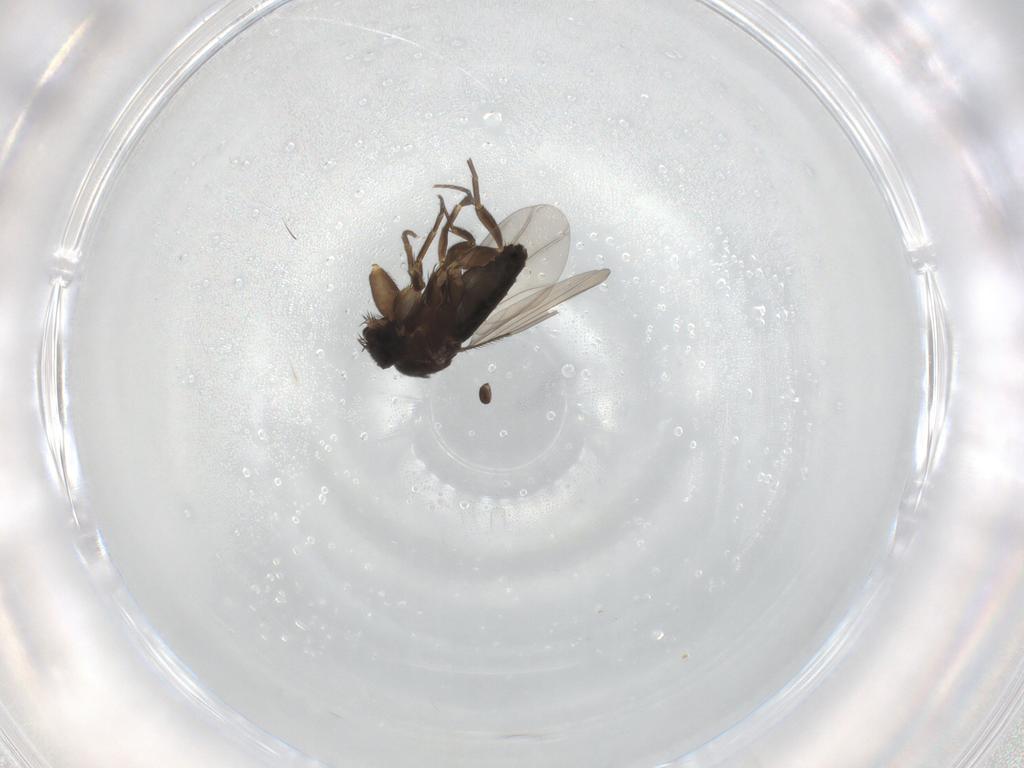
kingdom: Animalia
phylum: Arthropoda
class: Insecta
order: Diptera
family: Phoridae
